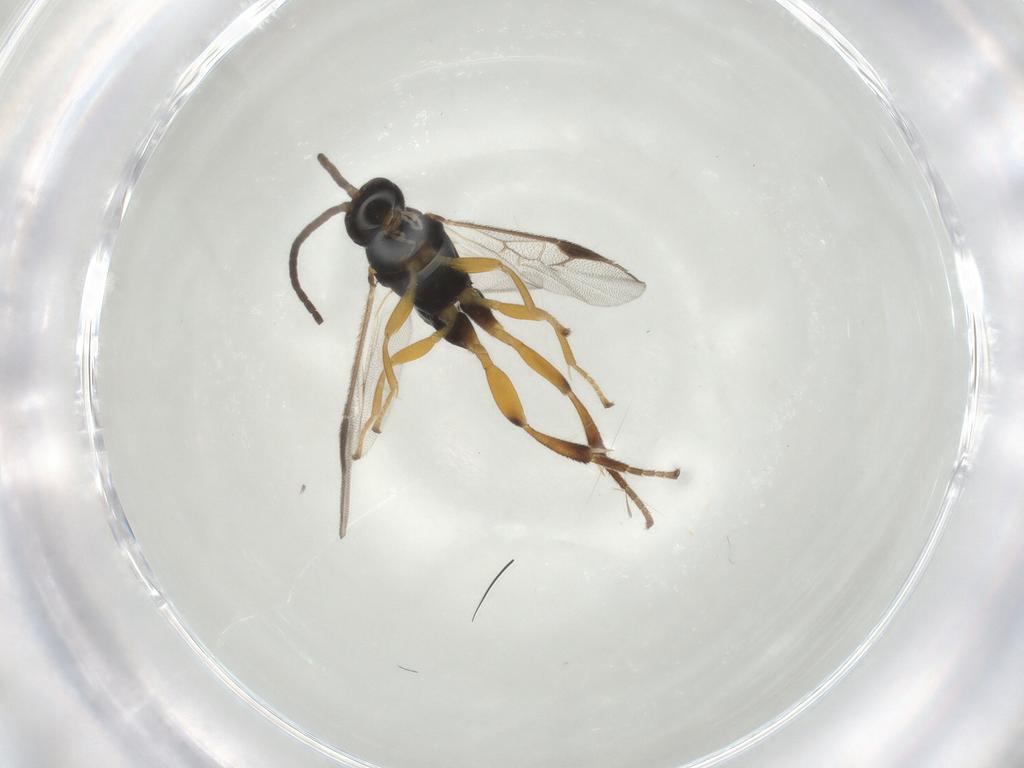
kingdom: Animalia
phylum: Arthropoda
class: Insecta
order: Hymenoptera
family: Braconidae
